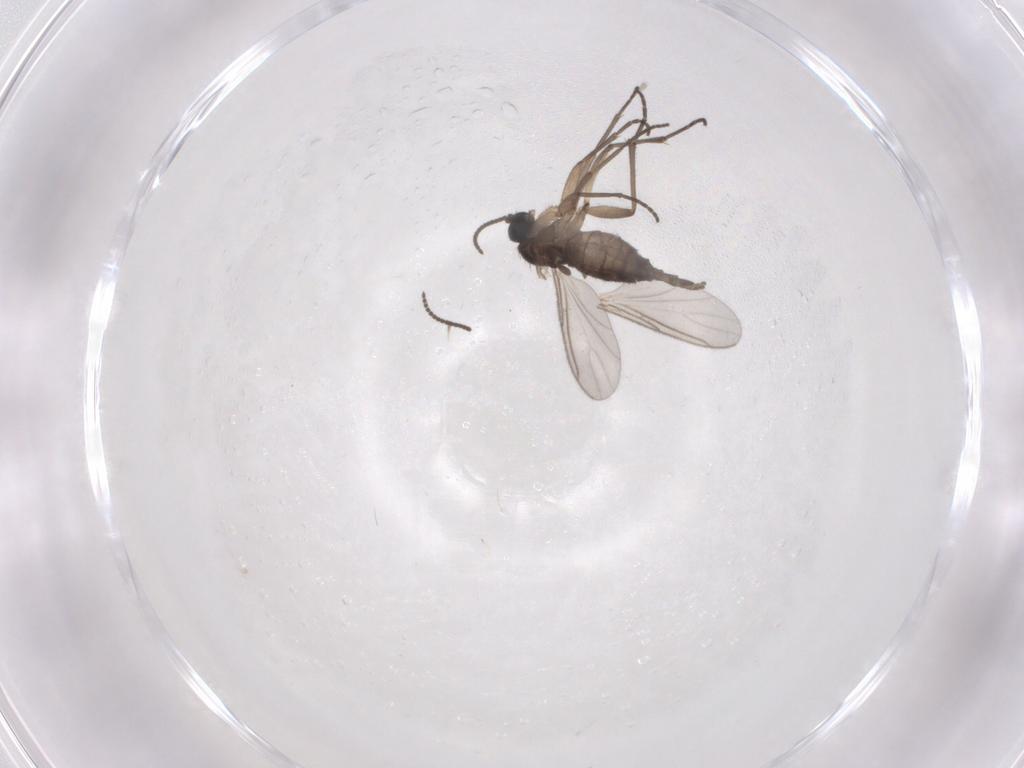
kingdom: Animalia
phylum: Arthropoda
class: Insecta
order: Diptera
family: Sciaridae
